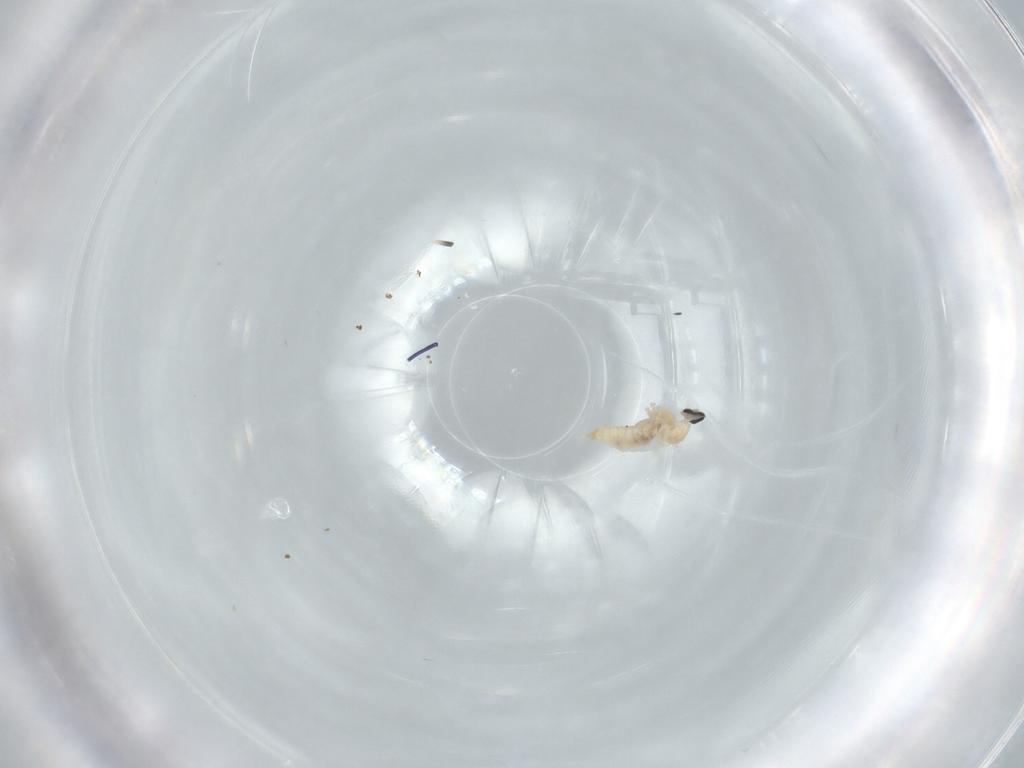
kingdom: Animalia
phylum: Arthropoda
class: Insecta
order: Diptera
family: Cecidomyiidae
